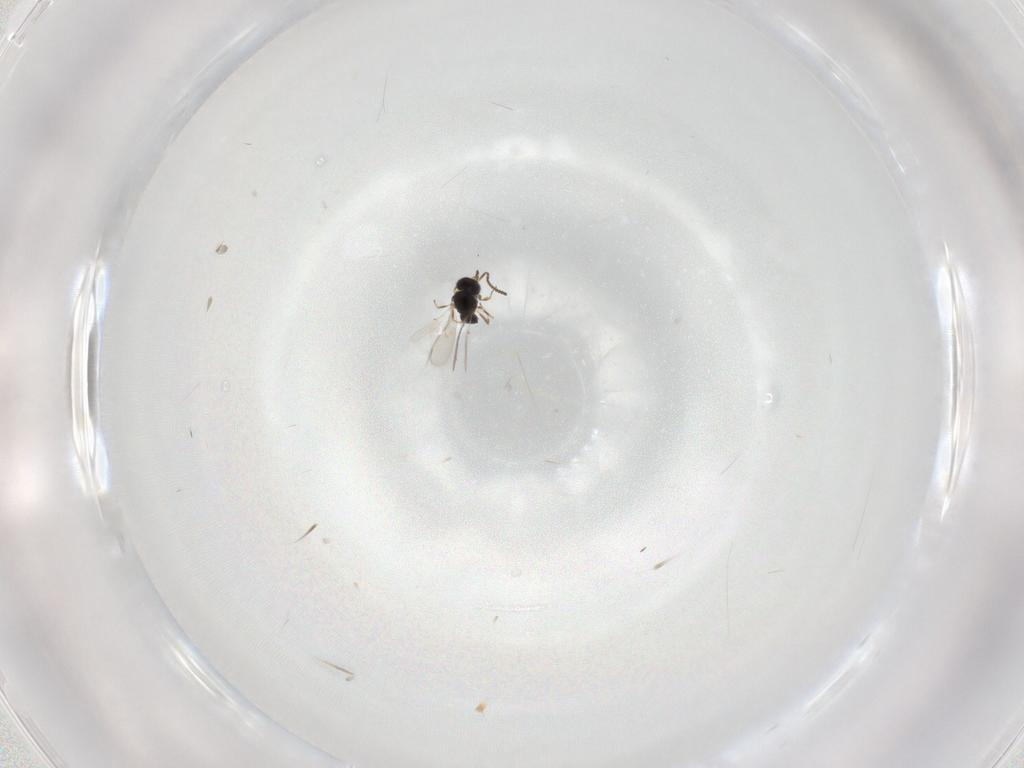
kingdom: Animalia
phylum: Arthropoda
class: Insecta
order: Hymenoptera
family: Scelionidae
